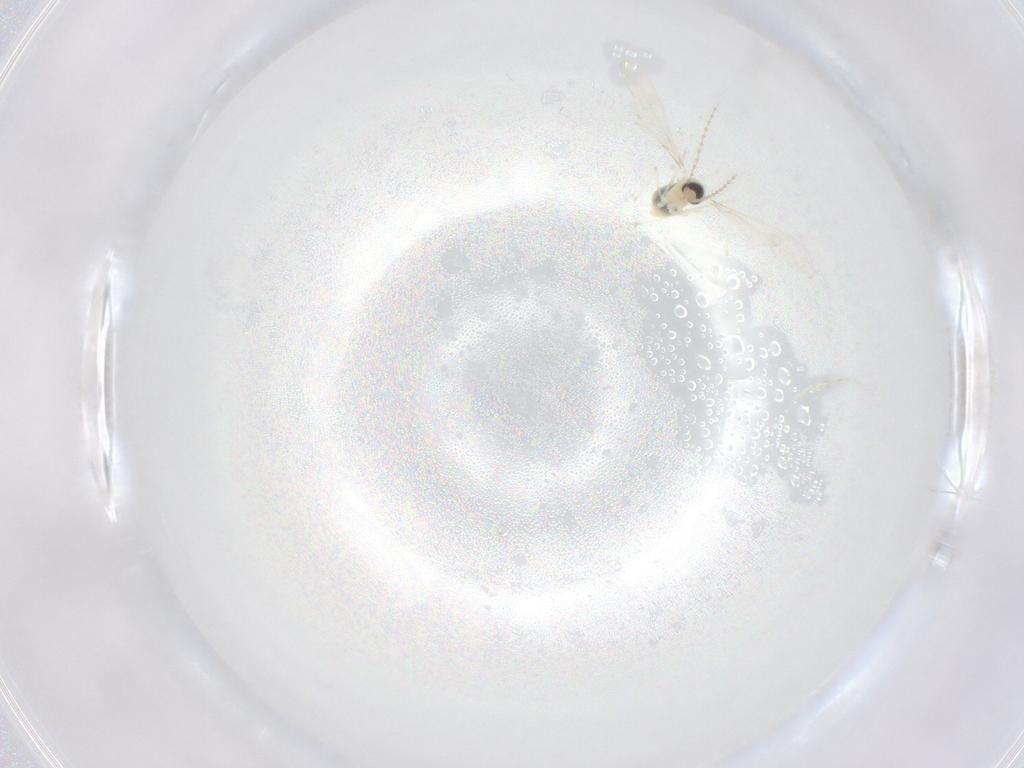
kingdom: Animalia
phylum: Arthropoda
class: Insecta
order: Diptera
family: Cecidomyiidae
